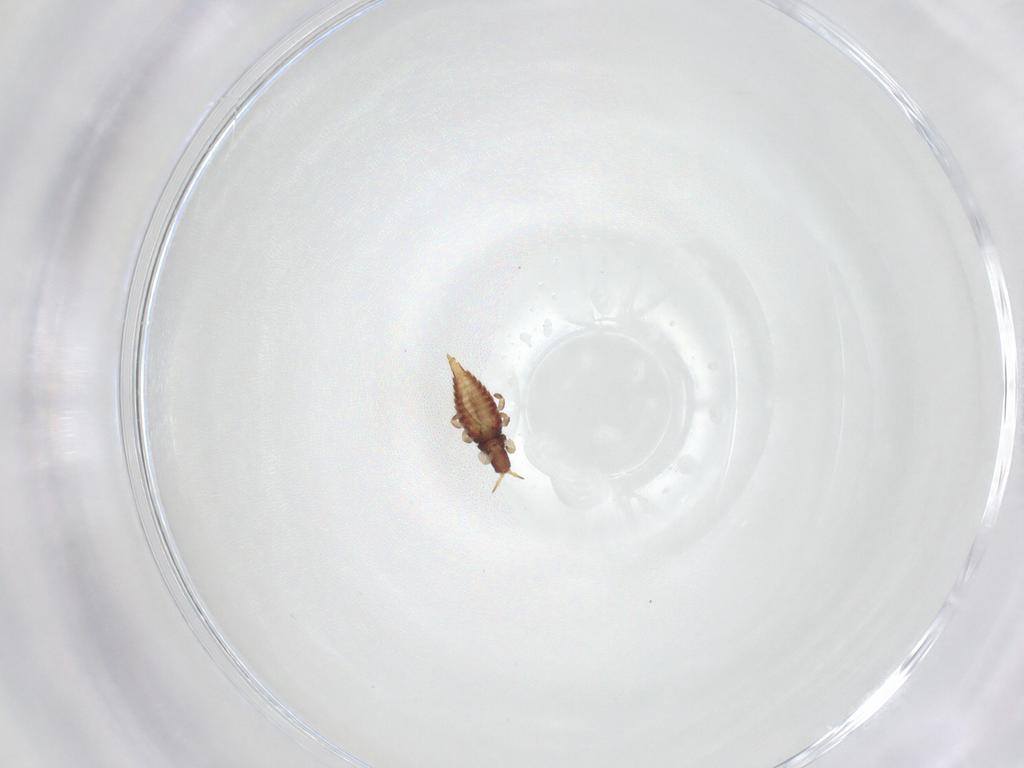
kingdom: Animalia
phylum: Arthropoda
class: Insecta
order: Thysanoptera
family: Phlaeothripidae
